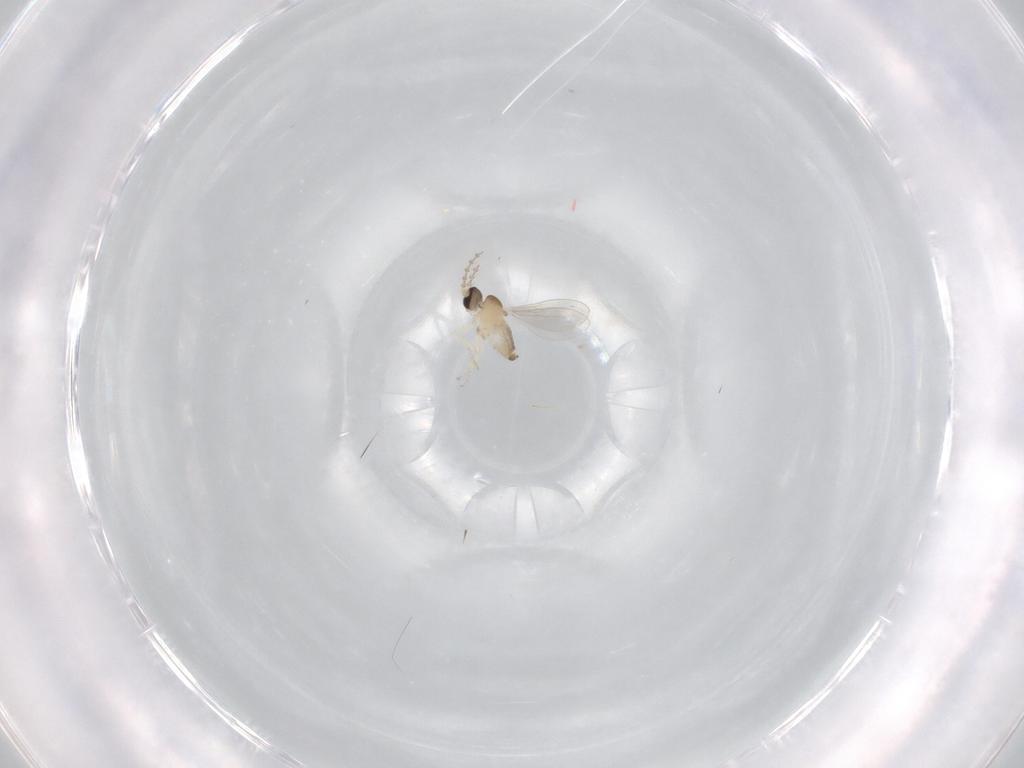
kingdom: Animalia
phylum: Arthropoda
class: Insecta
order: Diptera
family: Cecidomyiidae
